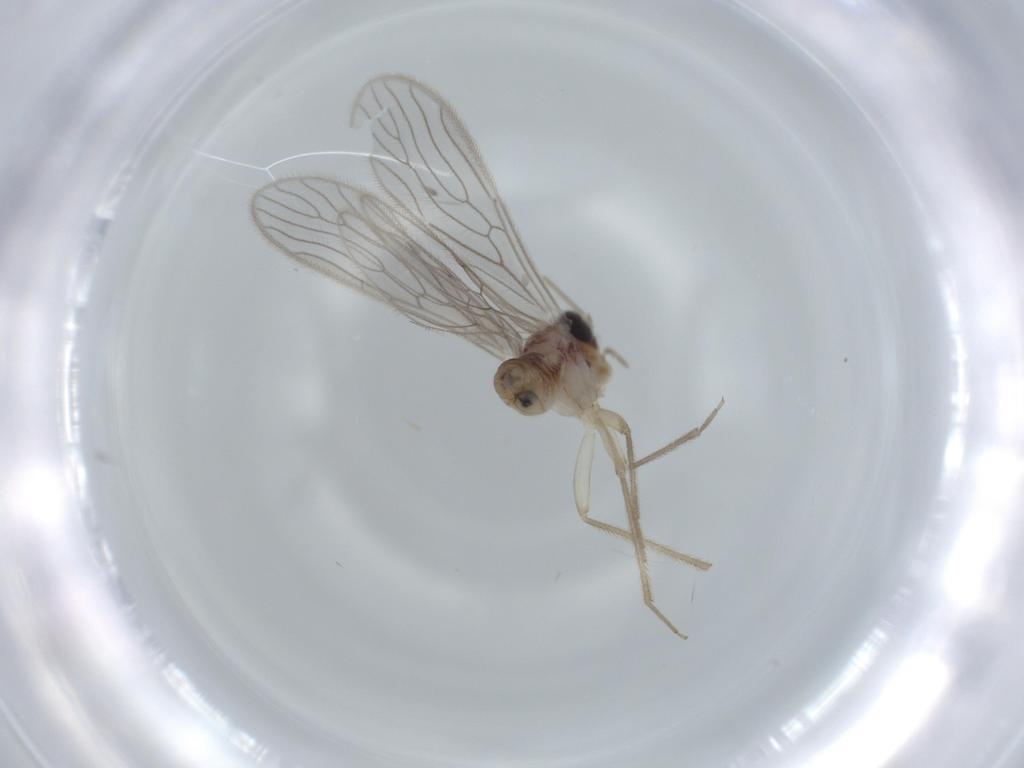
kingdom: Animalia
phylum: Arthropoda
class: Insecta
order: Psocodea
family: Cladiopsocidae
